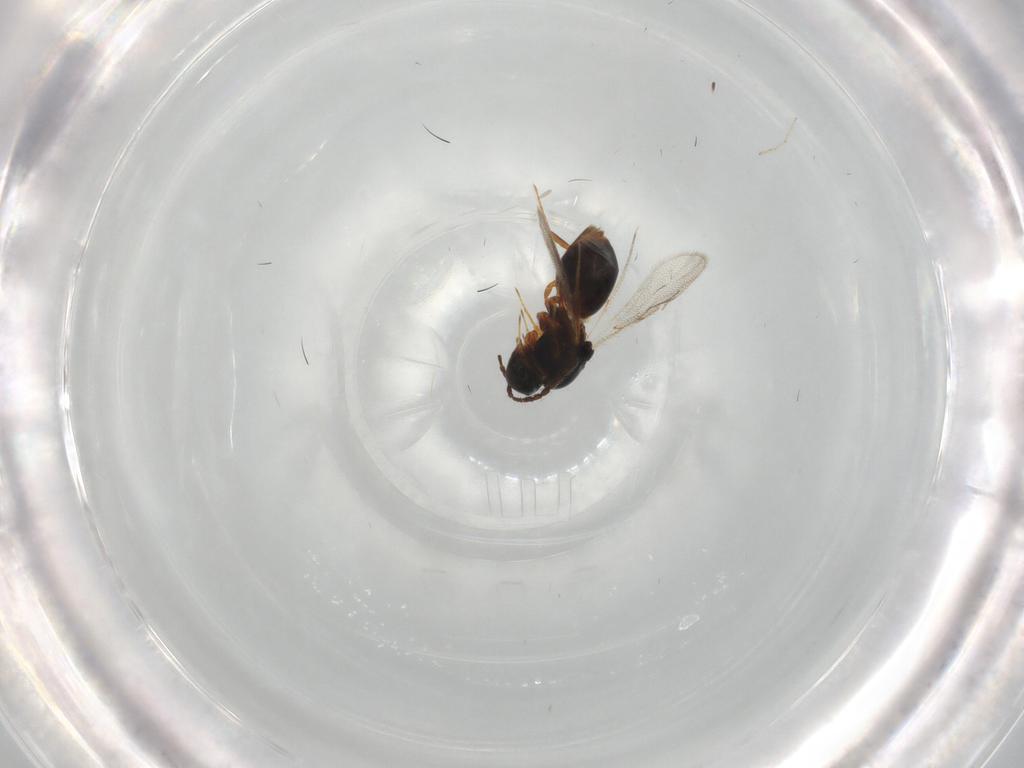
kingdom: Animalia
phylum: Arthropoda
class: Insecta
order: Hymenoptera
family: Figitidae
